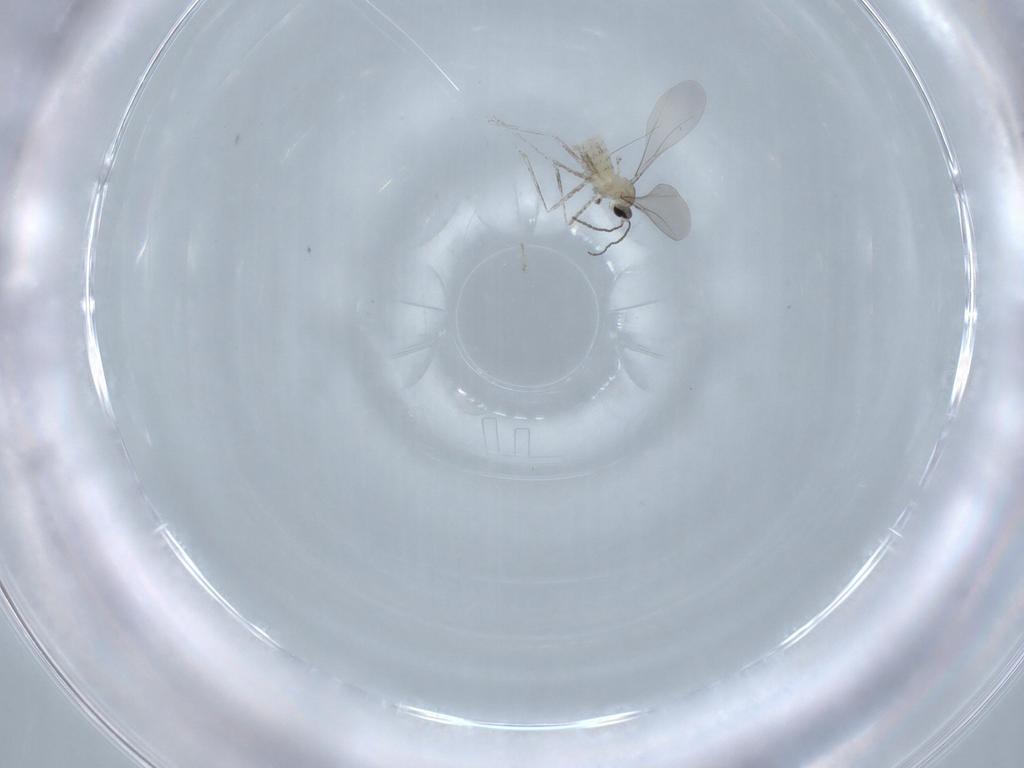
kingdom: Animalia
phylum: Arthropoda
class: Insecta
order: Diptera
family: Cecidomyiidae
